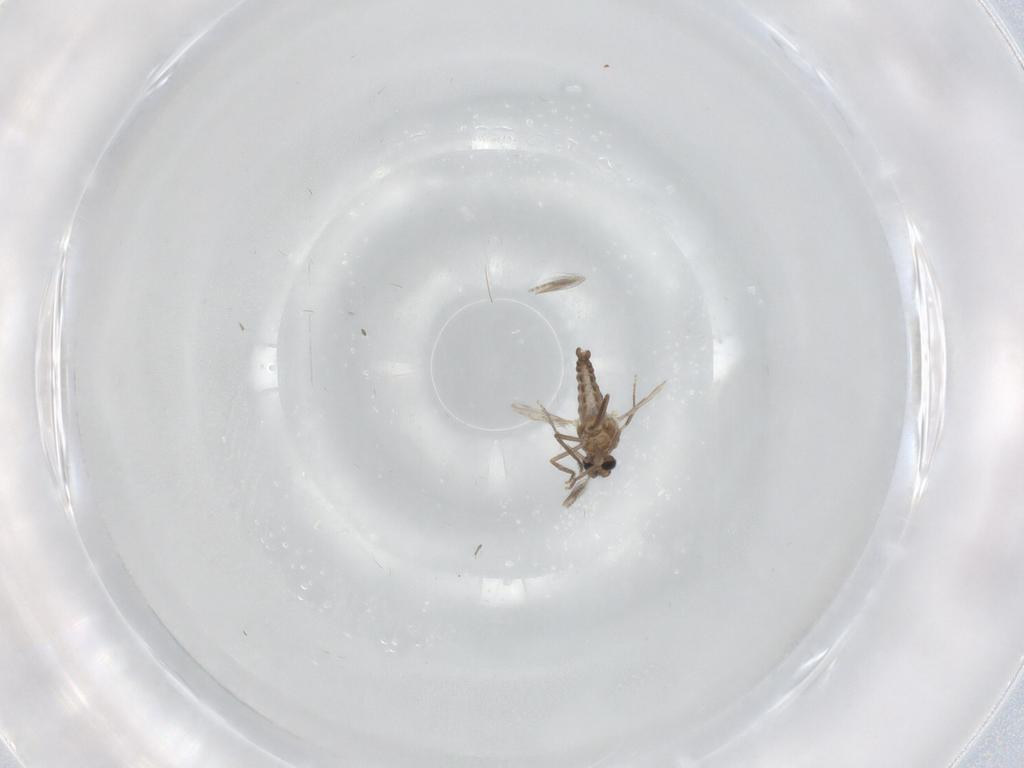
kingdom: Animalia
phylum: Arthropoda
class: Insecta
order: Diptera
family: Ceratopogonidae
